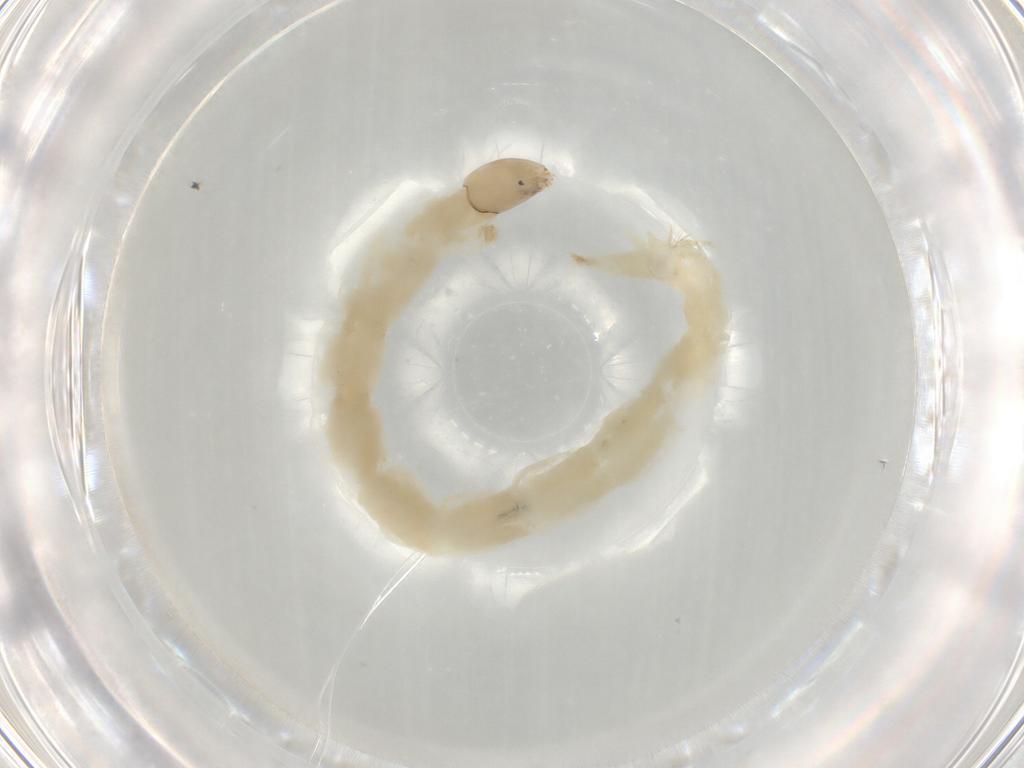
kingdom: Animalia
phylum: Arthropoda
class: Insecta
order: Diptera
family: Chironomidae
